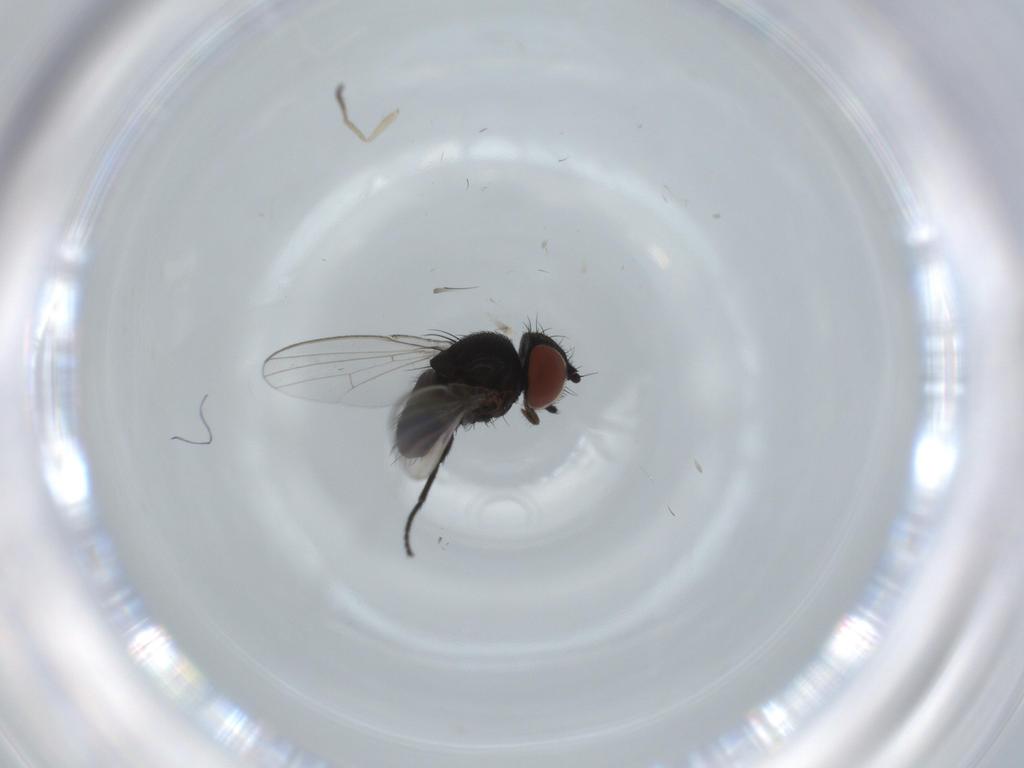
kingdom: Animalia
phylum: Arthropoda
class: Insecta
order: Diptera
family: Milichiidae
